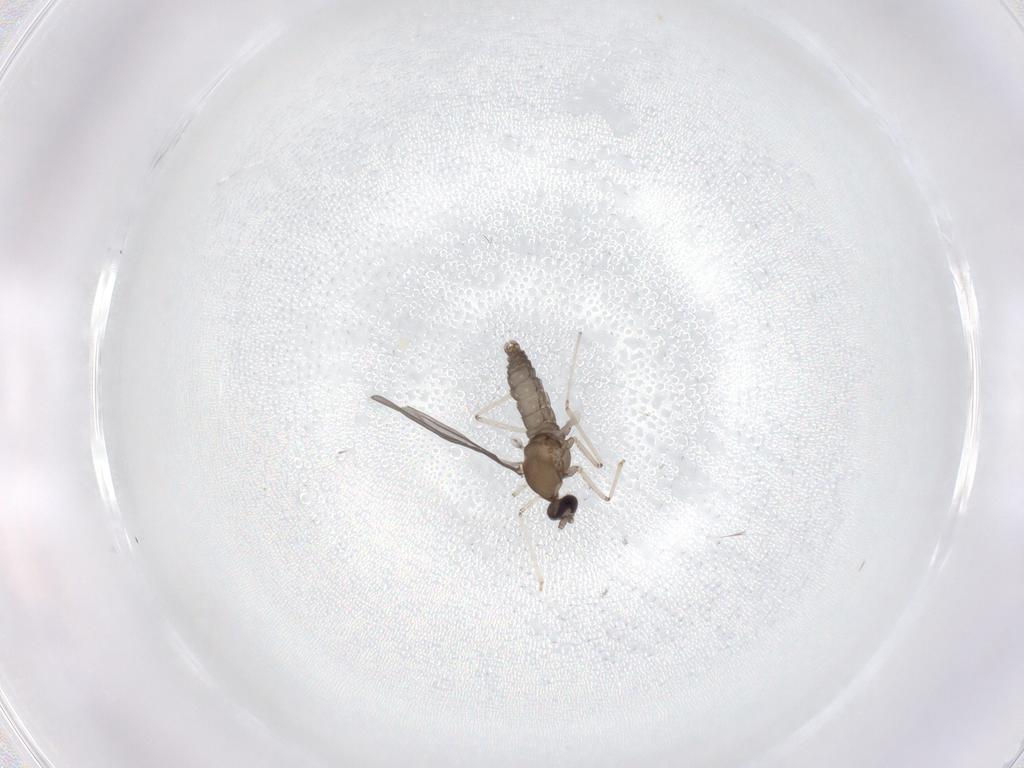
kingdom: Animalia
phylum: Arthropoda
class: Insecta
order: Diptera
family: Cecidomyiidae
